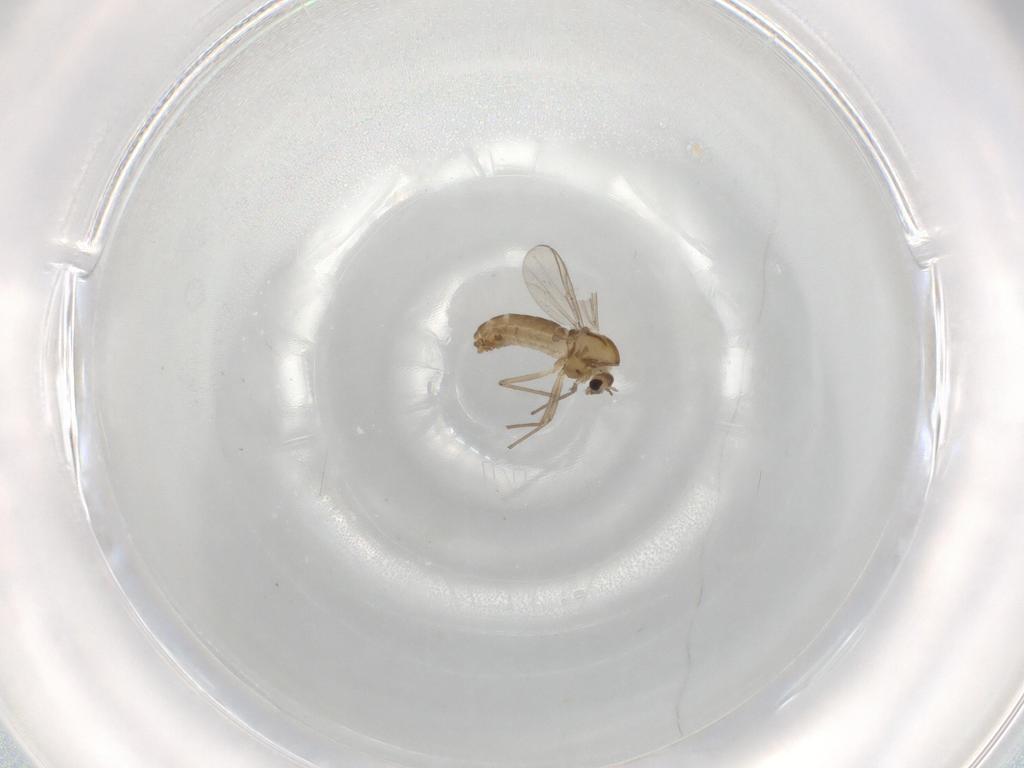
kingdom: Animalia
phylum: Arthropoda
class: Insecta
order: Diptera
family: Chironomidae
